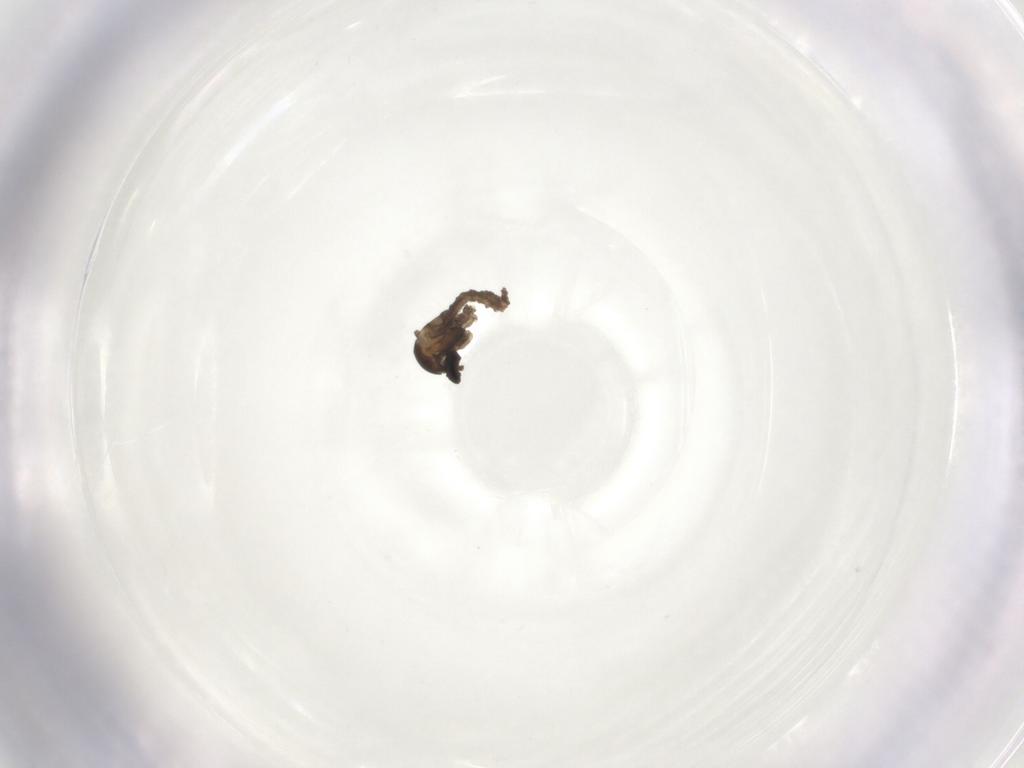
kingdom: Animalia
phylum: Arthropoda
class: Insecta
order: Diptera
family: Cecidomyiidae
